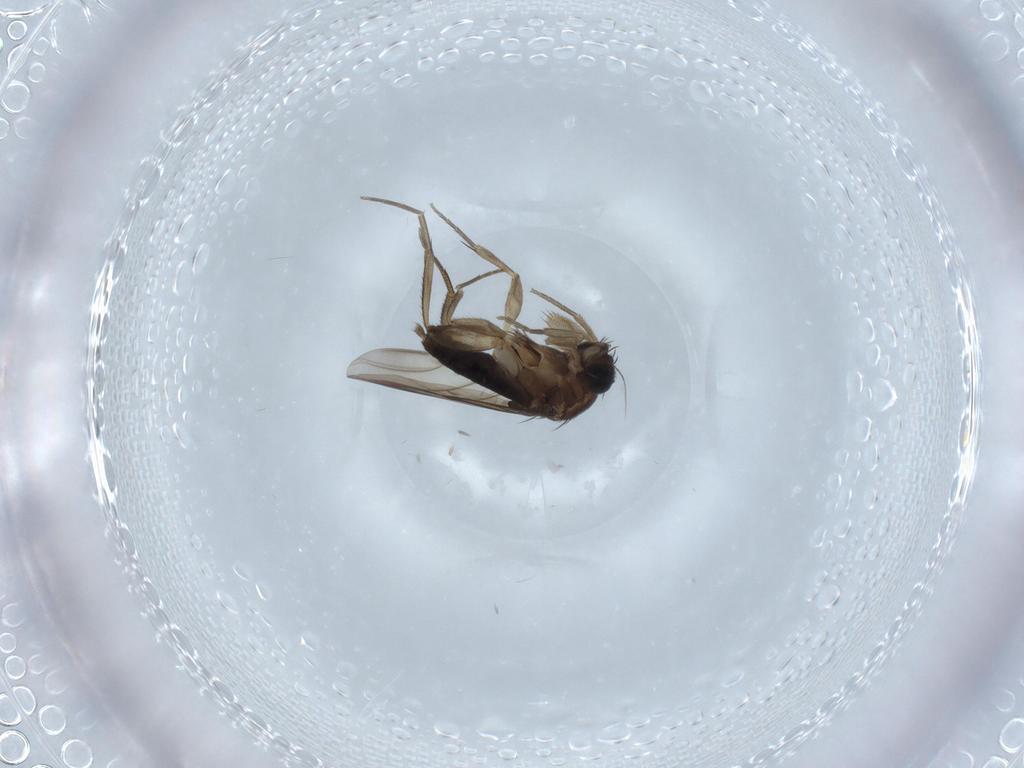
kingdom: Animalia
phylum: Arthropoda
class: Insecta
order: Diptera
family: Phoridae
